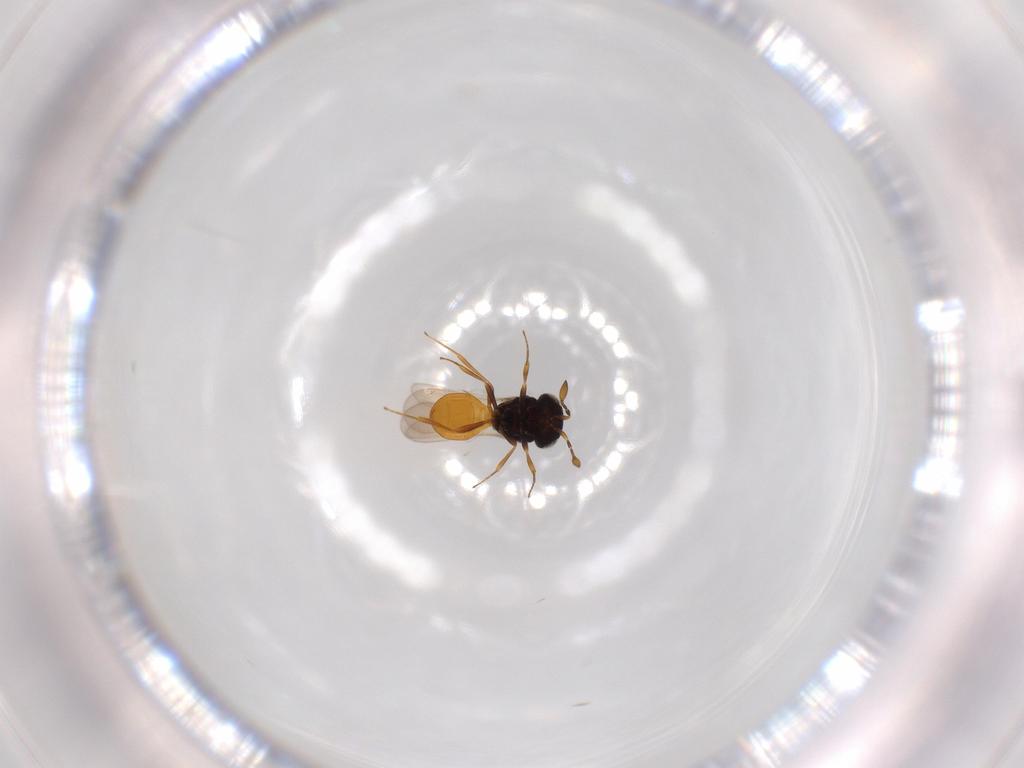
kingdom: Animalia
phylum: Arthropoda
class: Insecta
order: Hymenoptera
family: Scelionidae
